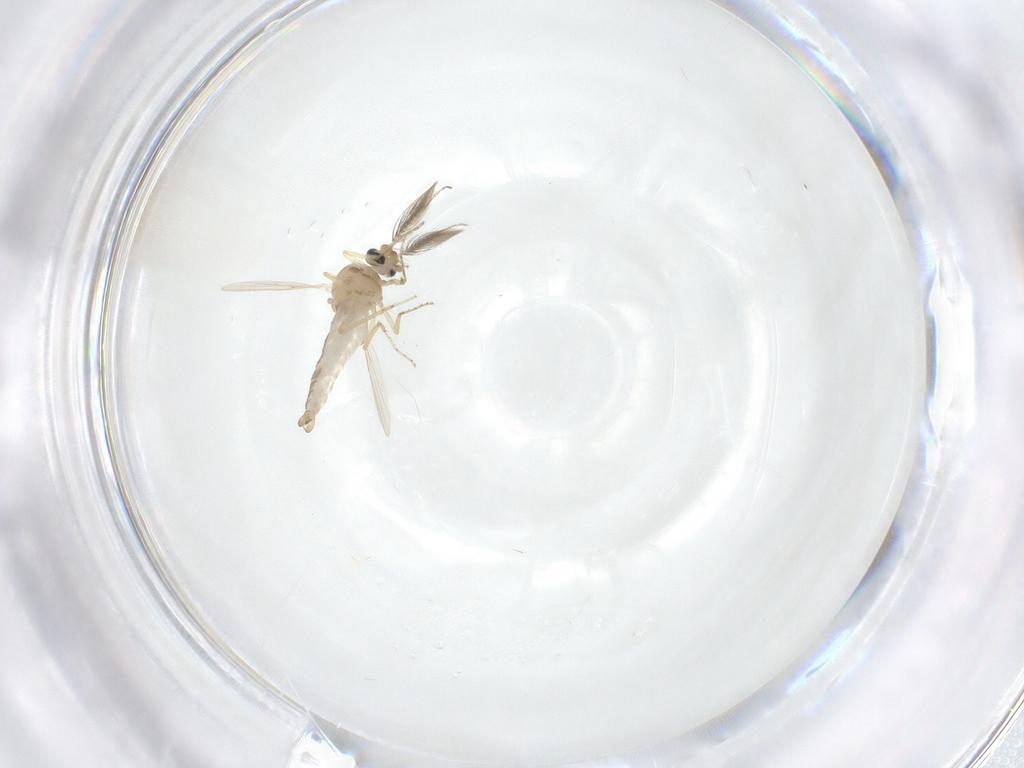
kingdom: Animalia
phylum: Arthropoda
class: Insecta
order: Diptera
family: Ceratopogonidae
